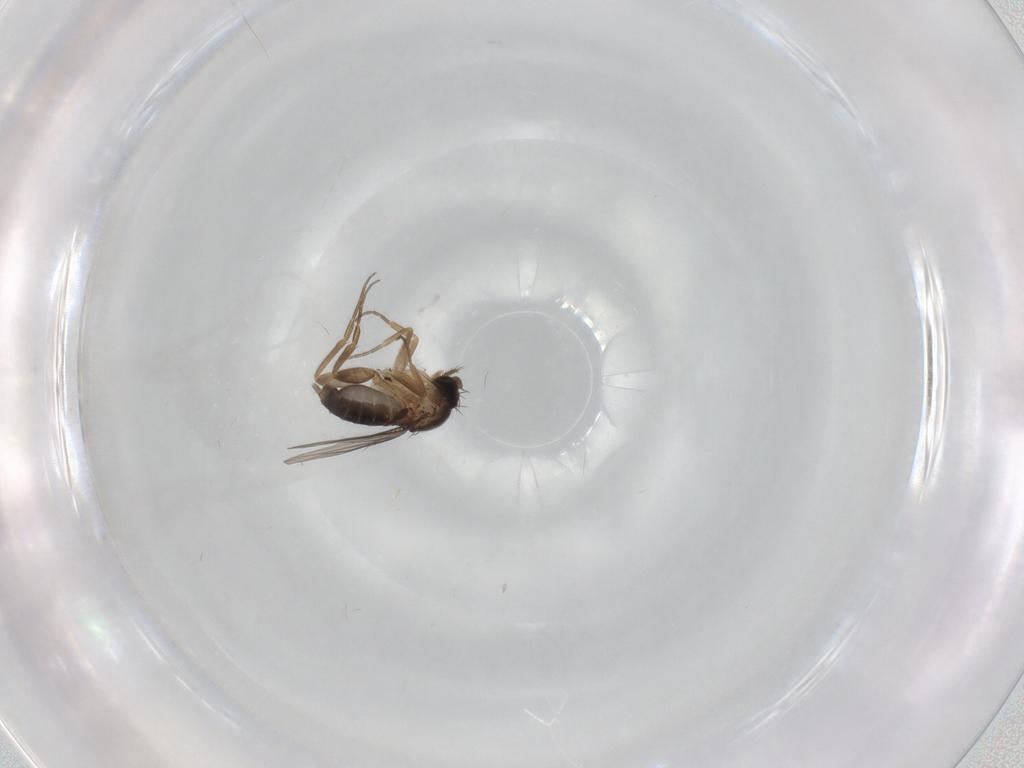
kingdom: Animalia
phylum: Arthropoda
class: Insecta
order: Diptera
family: Phoridae
